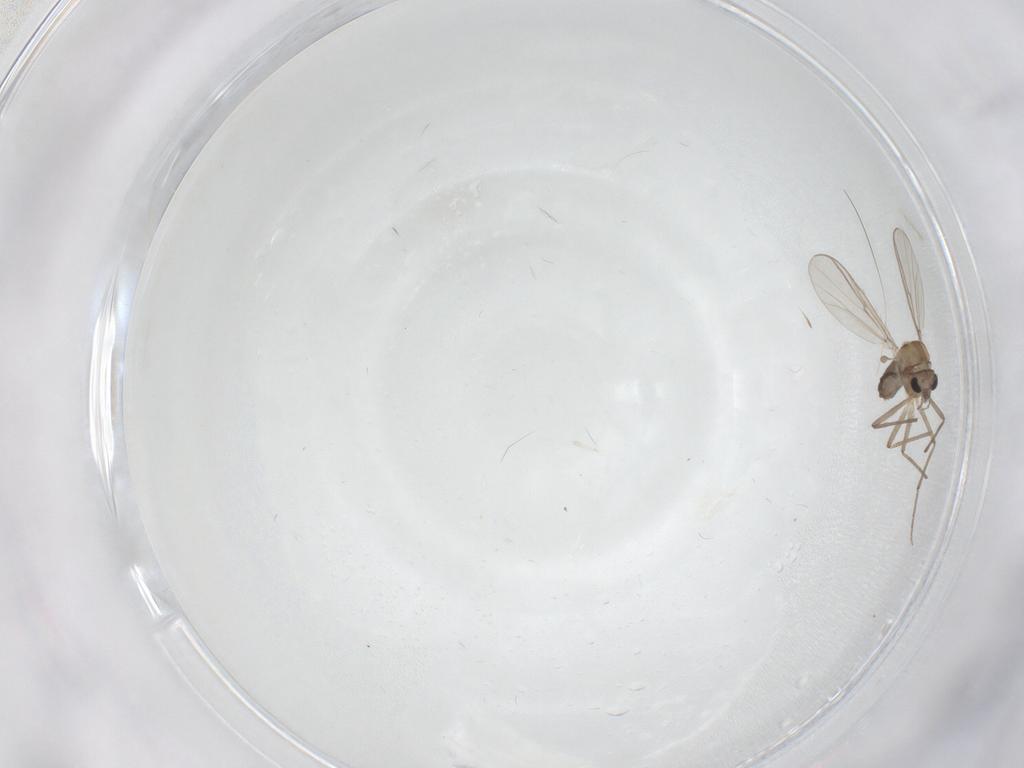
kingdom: Animalia
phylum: Arthropoda
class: Insecta
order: Diptera
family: Chironomidae
